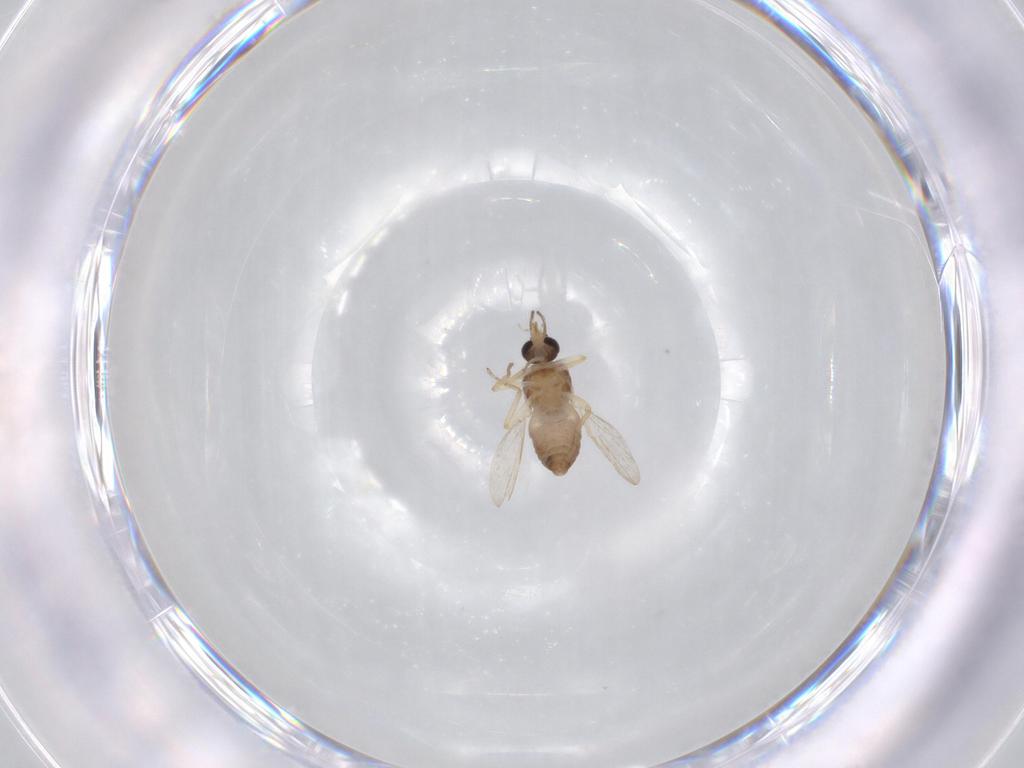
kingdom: Animalia
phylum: Arthropoda
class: Insecta
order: Diptera
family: Ceratopogonidae
